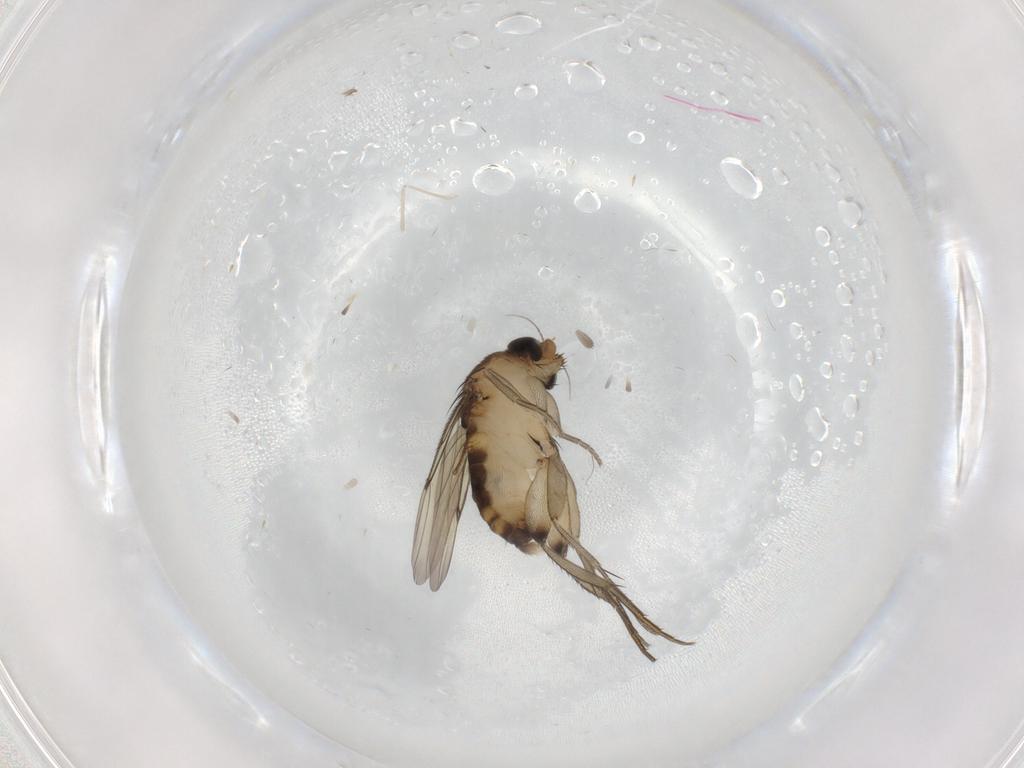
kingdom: Animalia
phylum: Arthropoda
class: Insecta
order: Diptera
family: Phoridae
